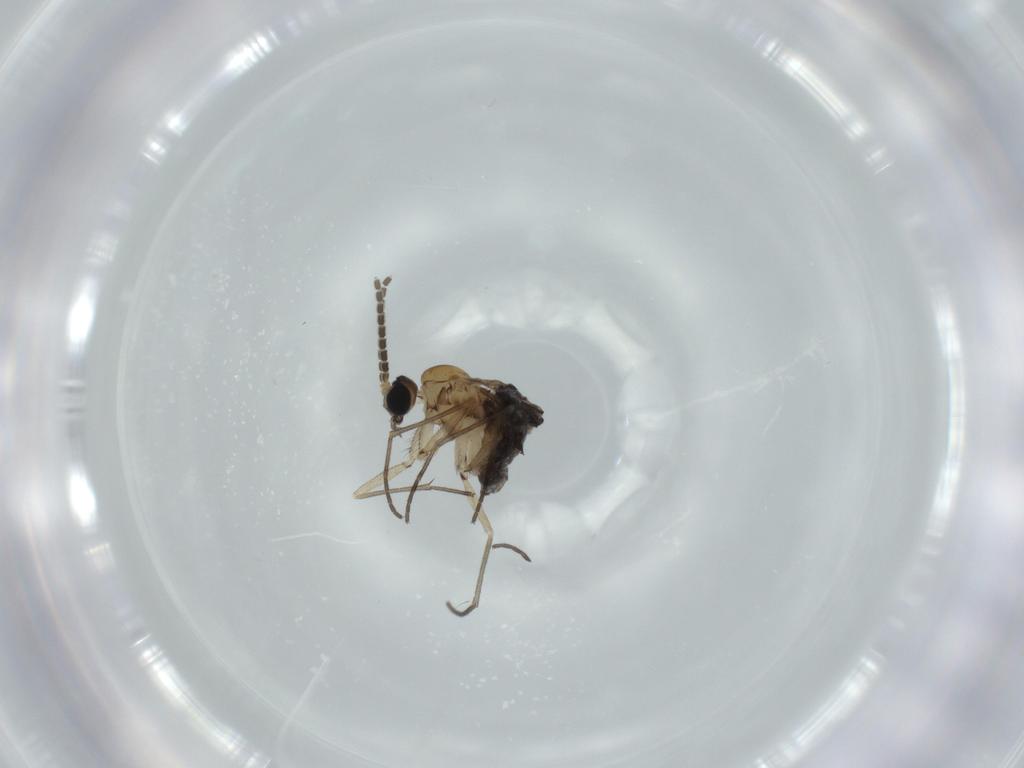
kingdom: Animalia
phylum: Arthropoda
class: Insecta
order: Diptera
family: Sciaridae
